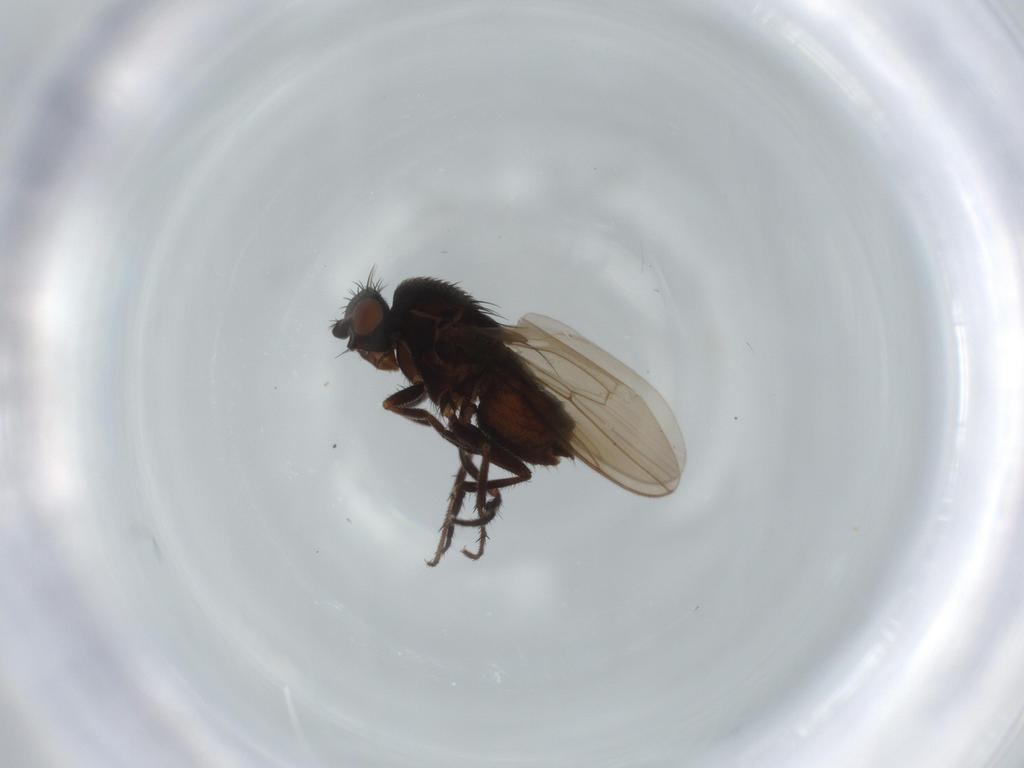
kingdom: Animalia
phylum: Arthropoda
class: Insecta
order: Diptera
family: Sphaeroceridae
